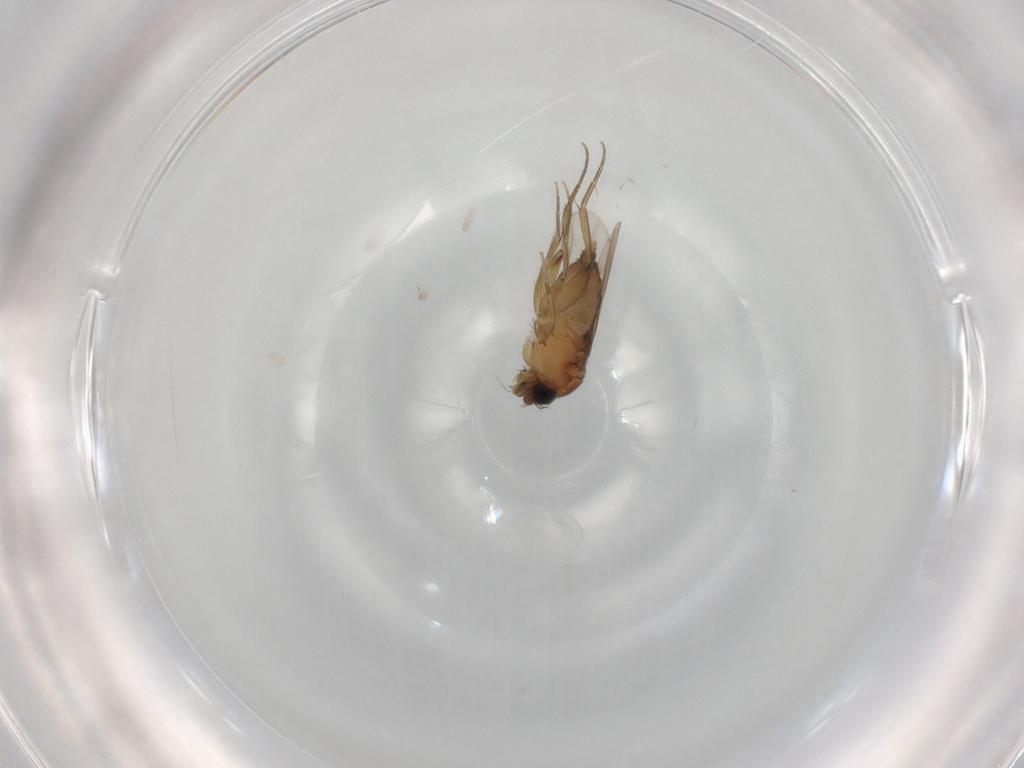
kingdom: Animalia
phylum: Arthropoda
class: Insecta
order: Diptera
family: Phoridae
